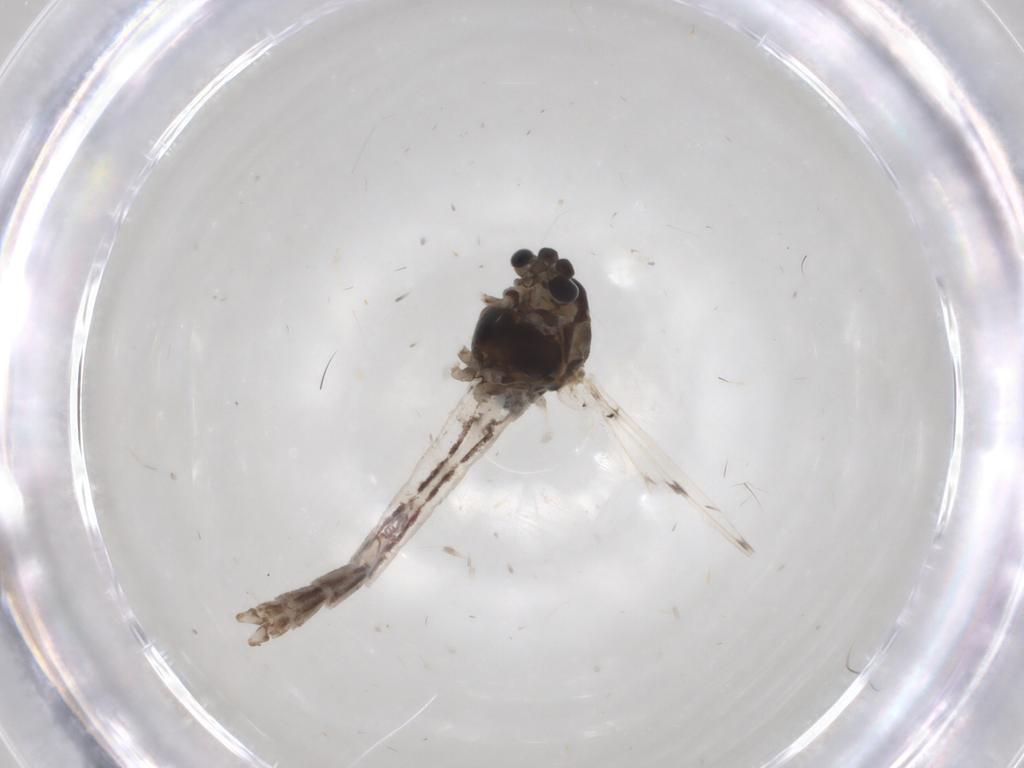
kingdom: Animalia
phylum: Arthropoda
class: Insecta
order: Diptera
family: Chironomidae
